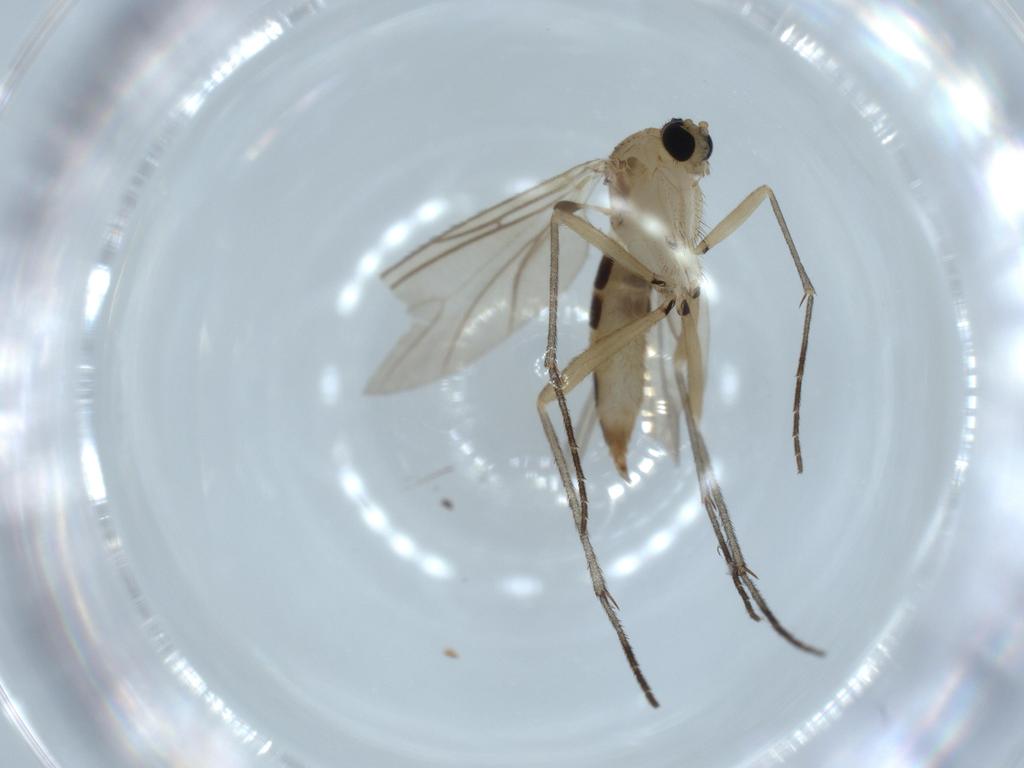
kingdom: Animalia
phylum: Arthropoda
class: Insecta
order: Diptera
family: Sciaridae
